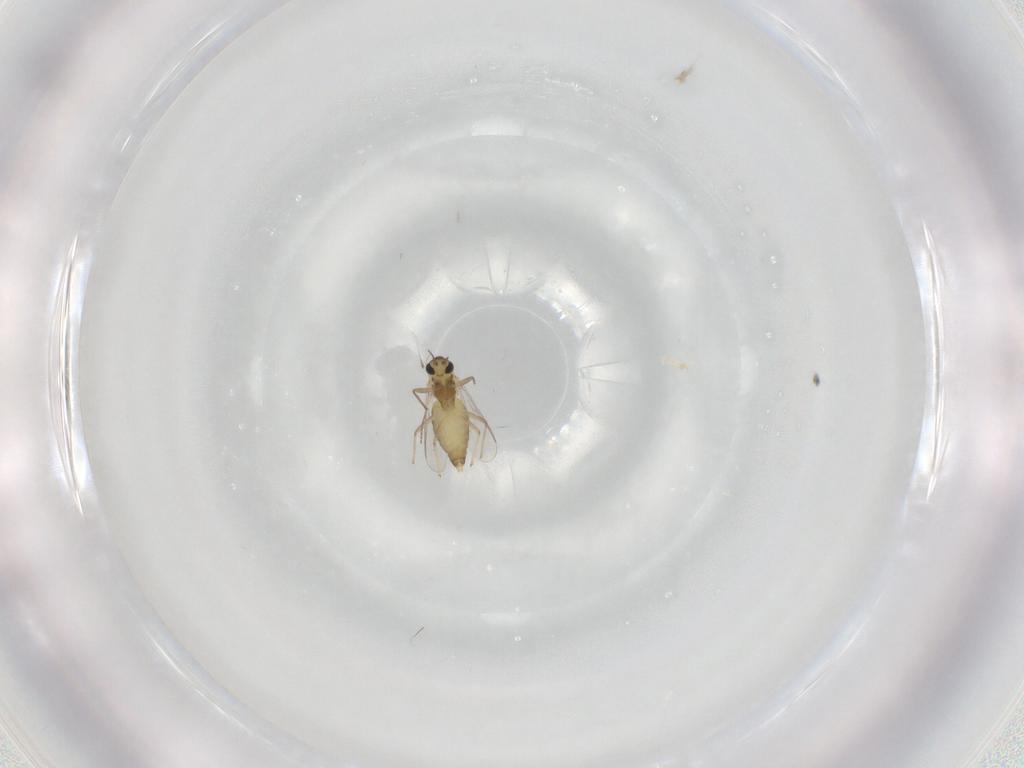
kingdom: Animalia
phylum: Arthropoda
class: Insecta
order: Diptera
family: Chironomidae
